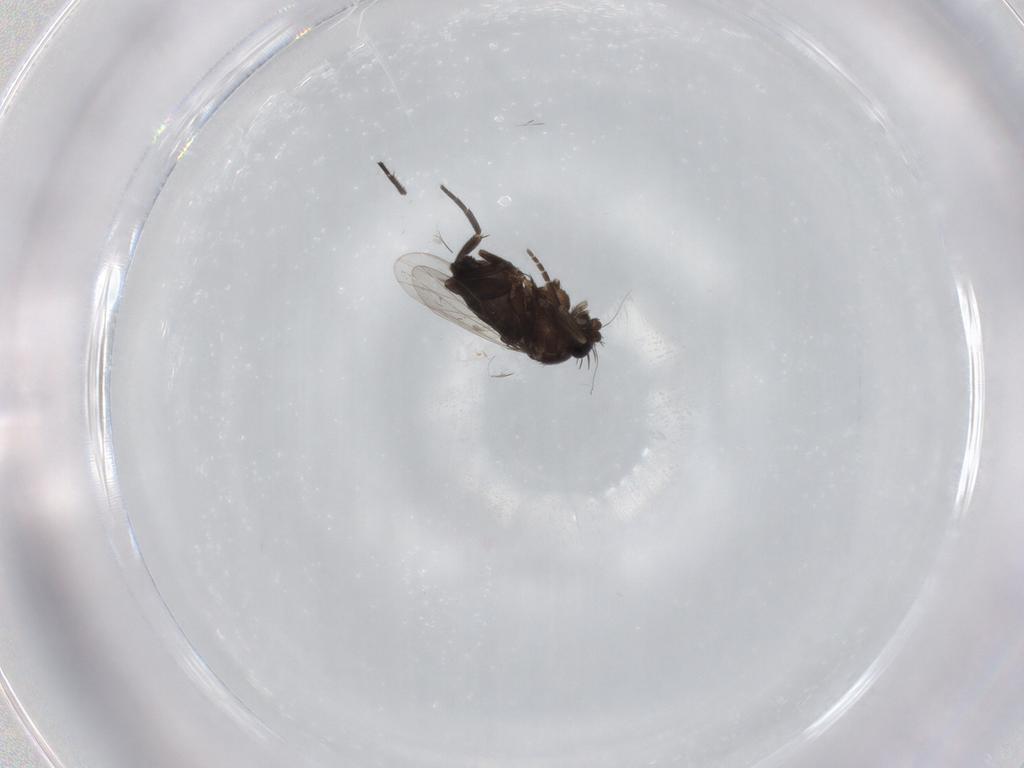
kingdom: Animalia
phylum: Arthropoda
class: Insecta
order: Diptera
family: Phoridae
